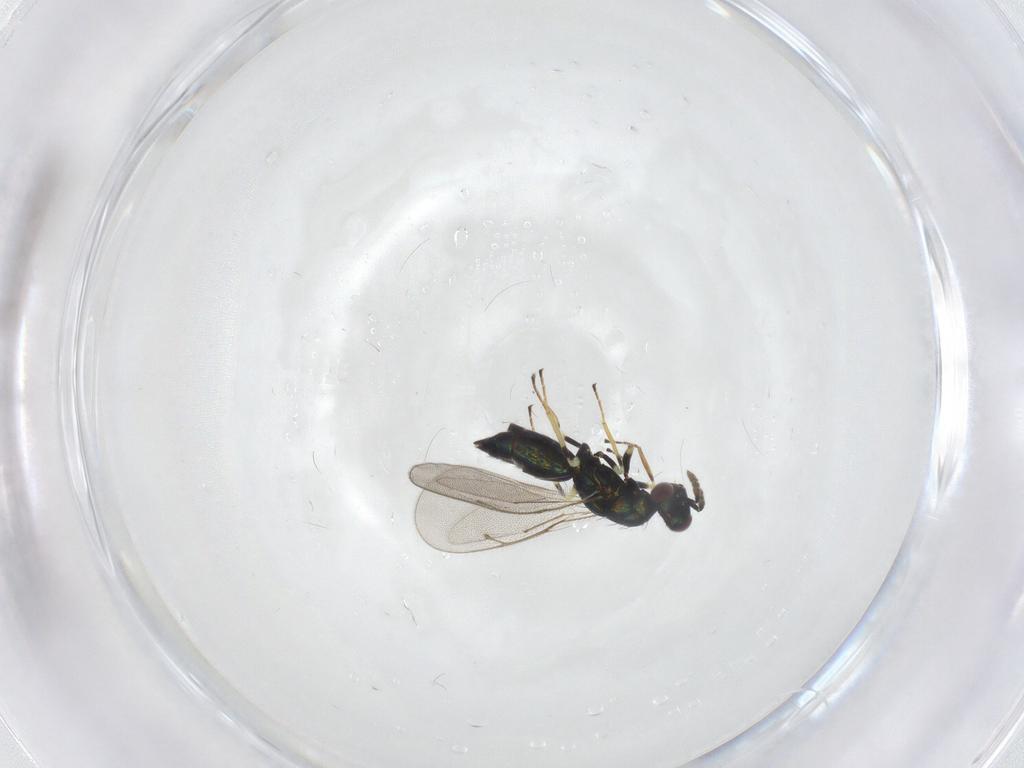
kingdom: Animalia
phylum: Arthropoda
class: Insecta
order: Hymenoptera
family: Eulophidae
